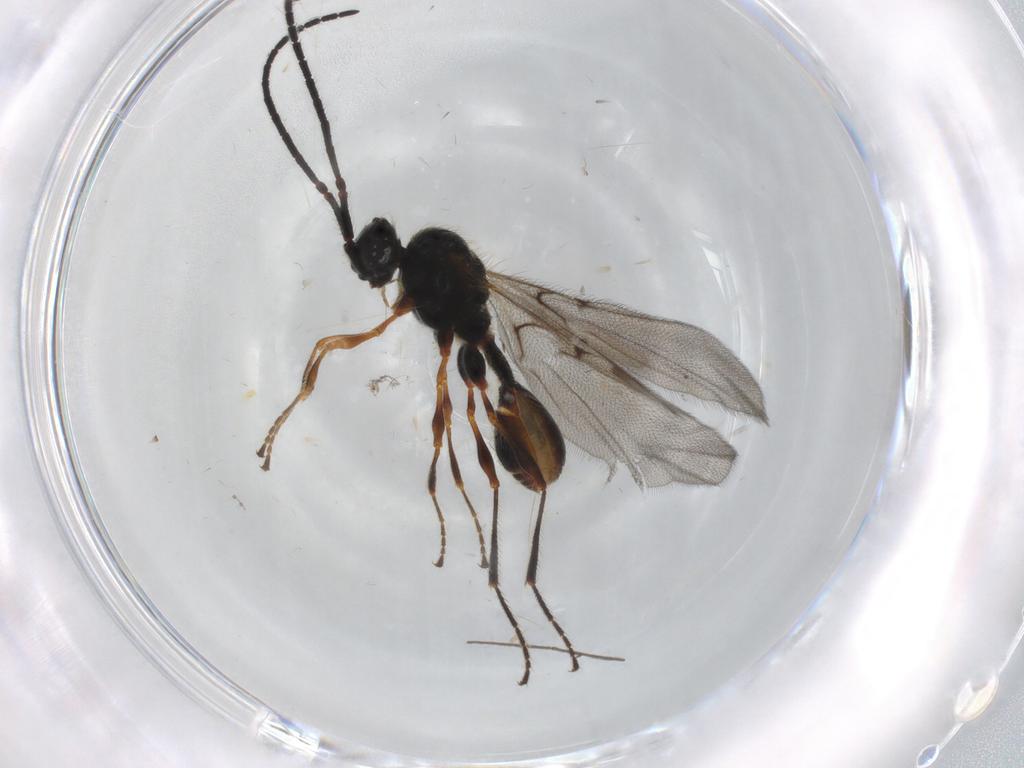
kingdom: Animalia
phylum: Arthropoda
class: Insecta
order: Hymenoptera
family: Diapriidae
